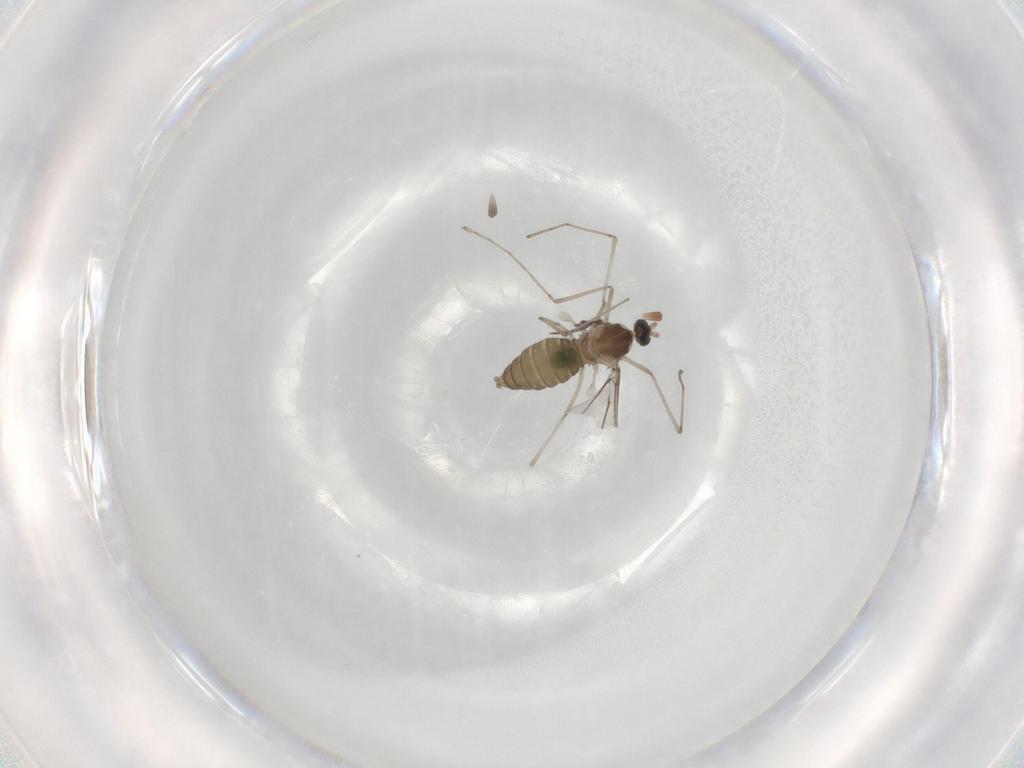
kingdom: Animalia
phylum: Arthropoda
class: Insecta
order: Diptera
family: Cecidomyiidae
